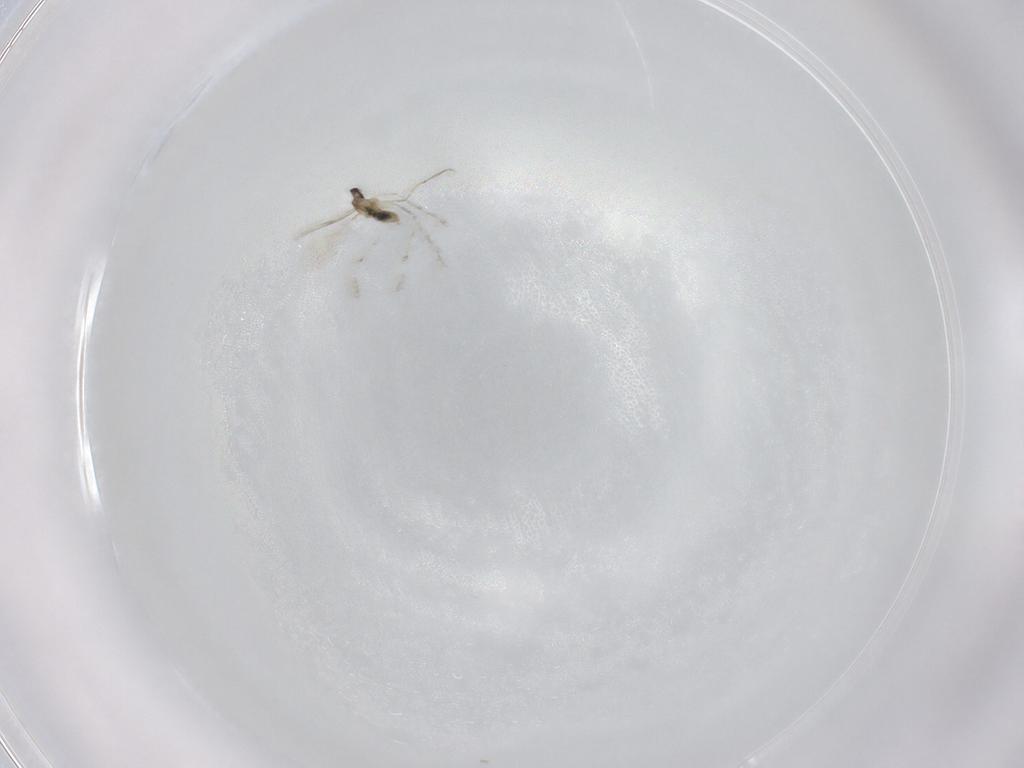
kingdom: Animalia
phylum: Arthropoda
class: Insecta
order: Diptera
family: Cecidomyiidae
